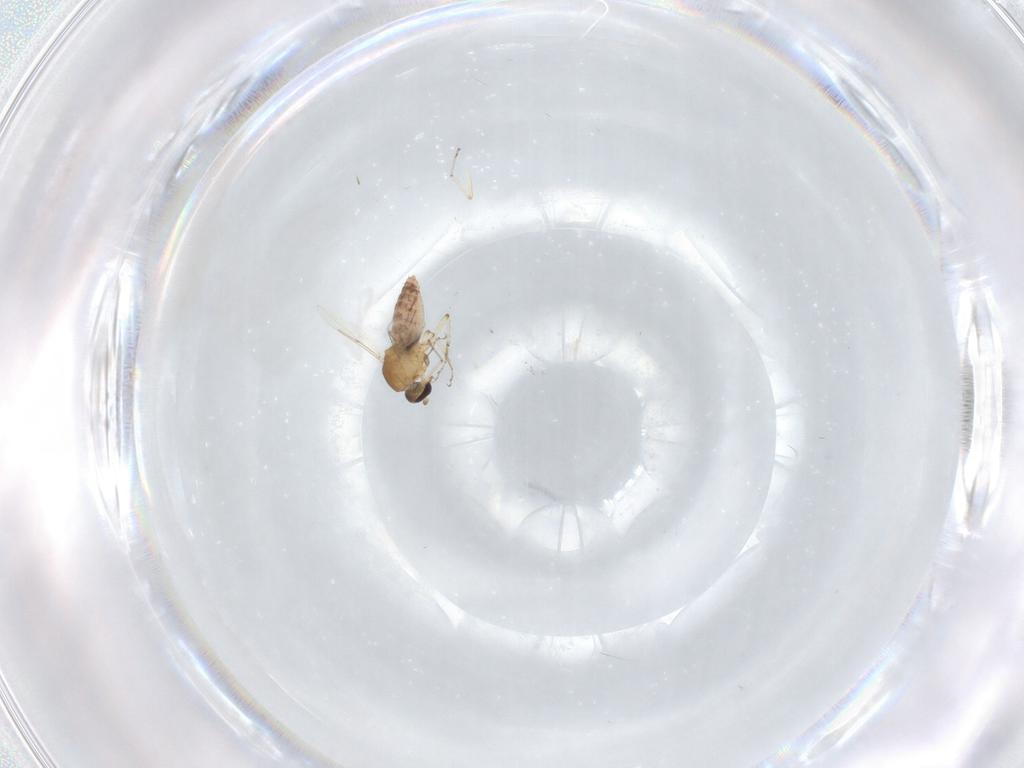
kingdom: Animalia
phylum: Arthropoda
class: Insecta
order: Diptera
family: Ceratopogonidae
